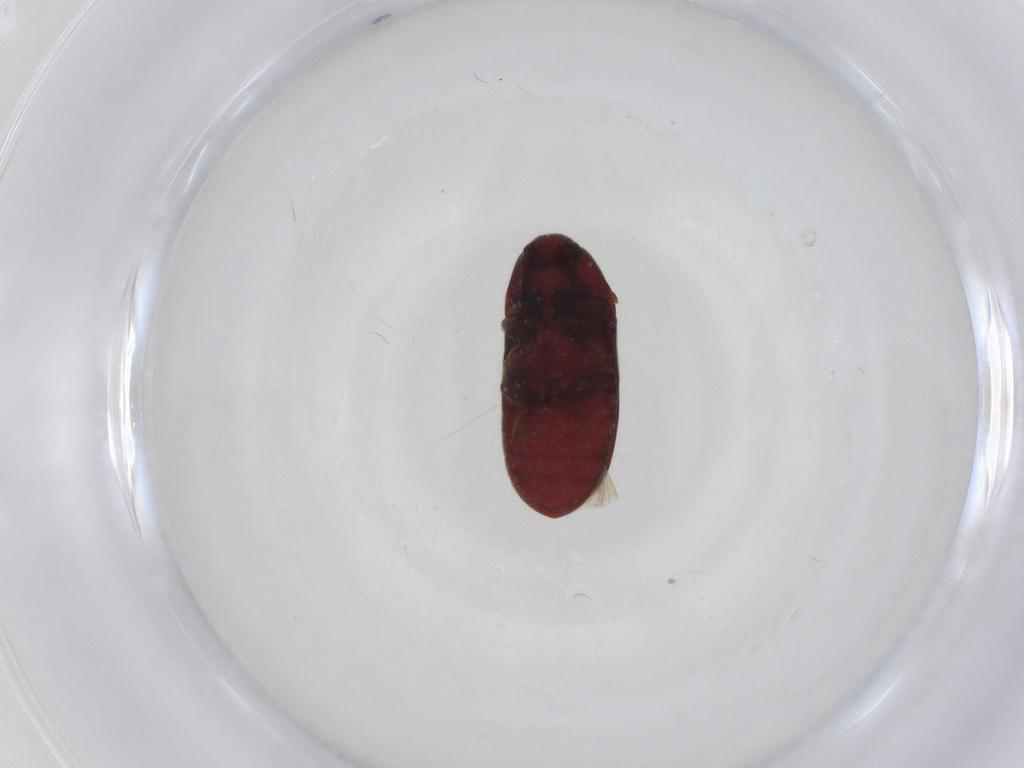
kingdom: Animalia
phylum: Arthropoda
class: Insecta
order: Coleoptera
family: Throscidae
